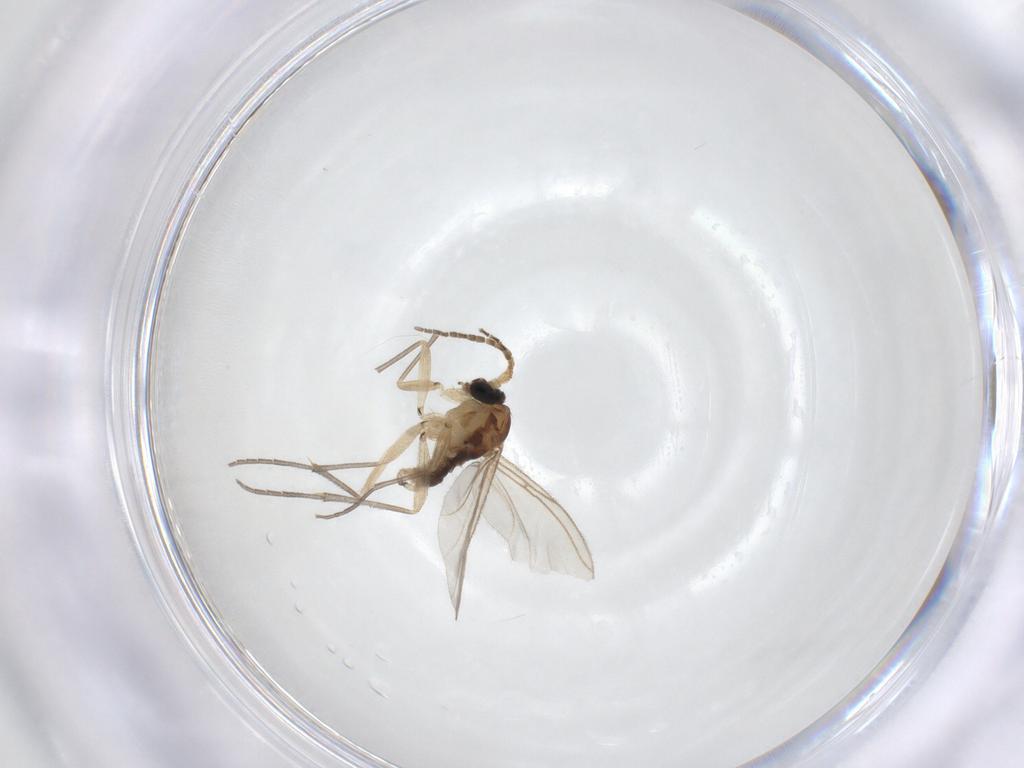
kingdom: Animalia
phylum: Arthropoda
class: Insecta
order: Diptera
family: Sciaridae
